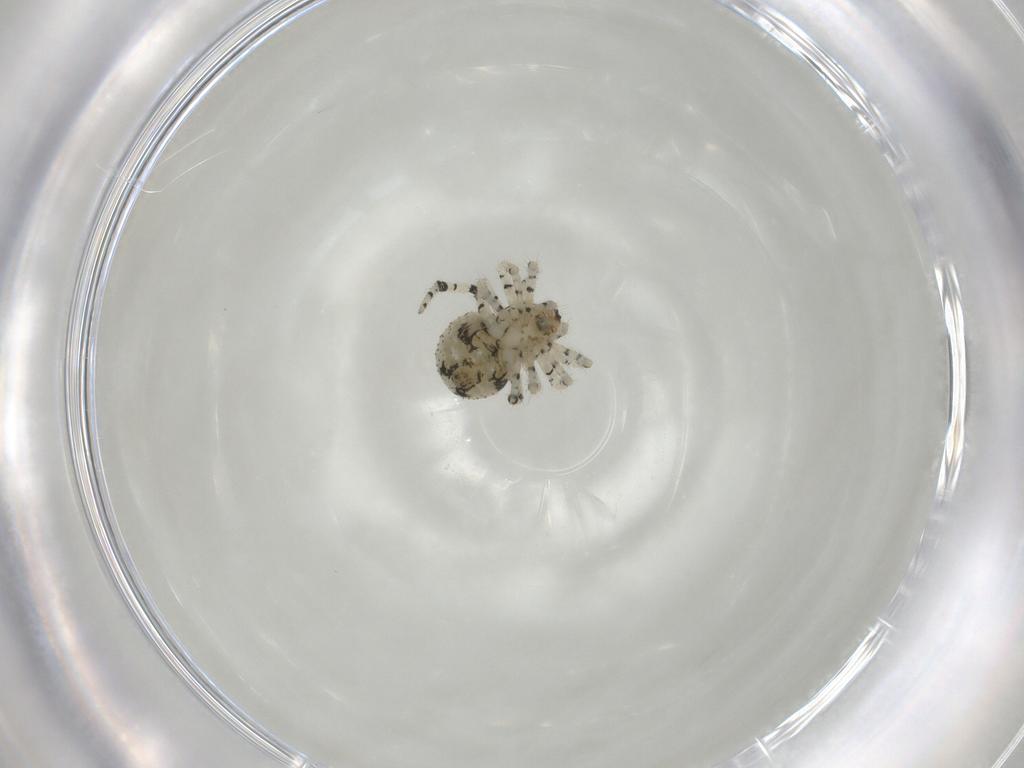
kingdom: Animalia
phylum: Arthropoda
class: Arachnida
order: Araneae
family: Theridiidae
